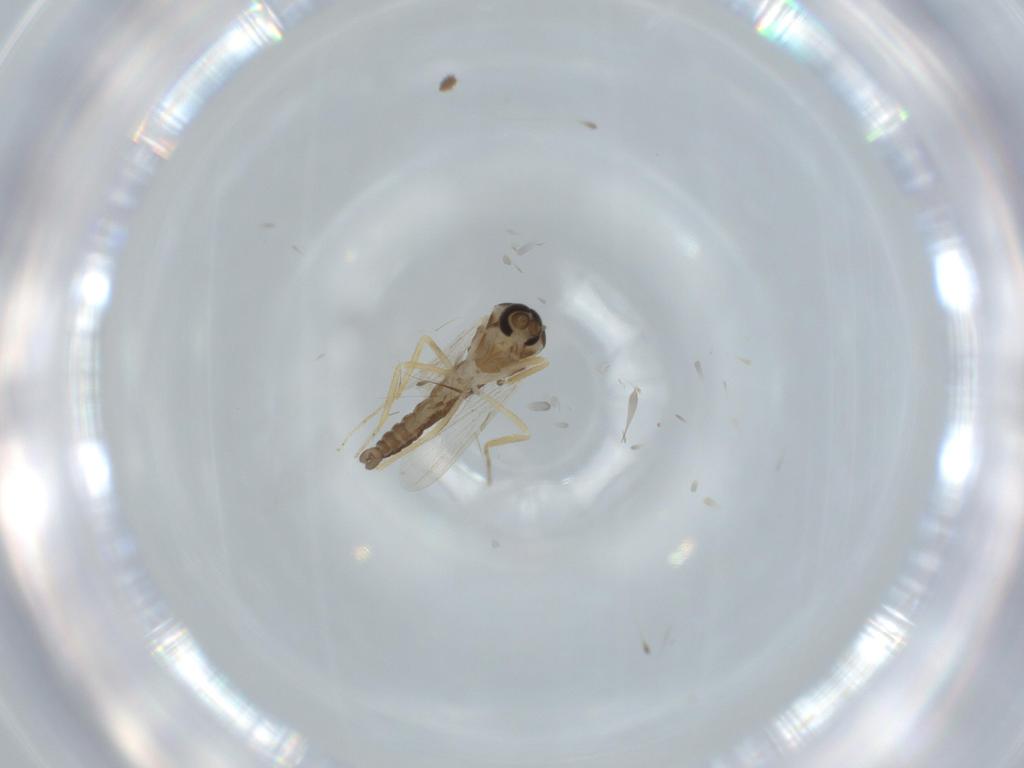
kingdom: Animalia
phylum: Arthropoda
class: Insecta
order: Diptera
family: Ceratopogonidae
